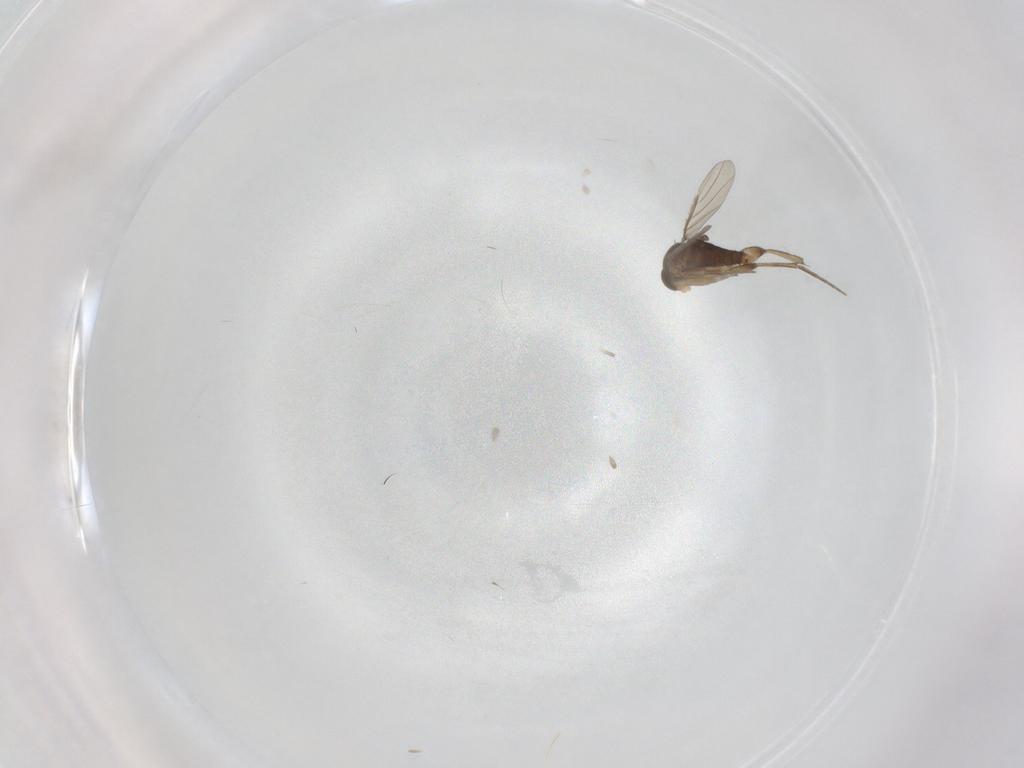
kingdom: Animalia
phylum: Arthropoda
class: Insecta
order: Diptera
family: Phoridae
